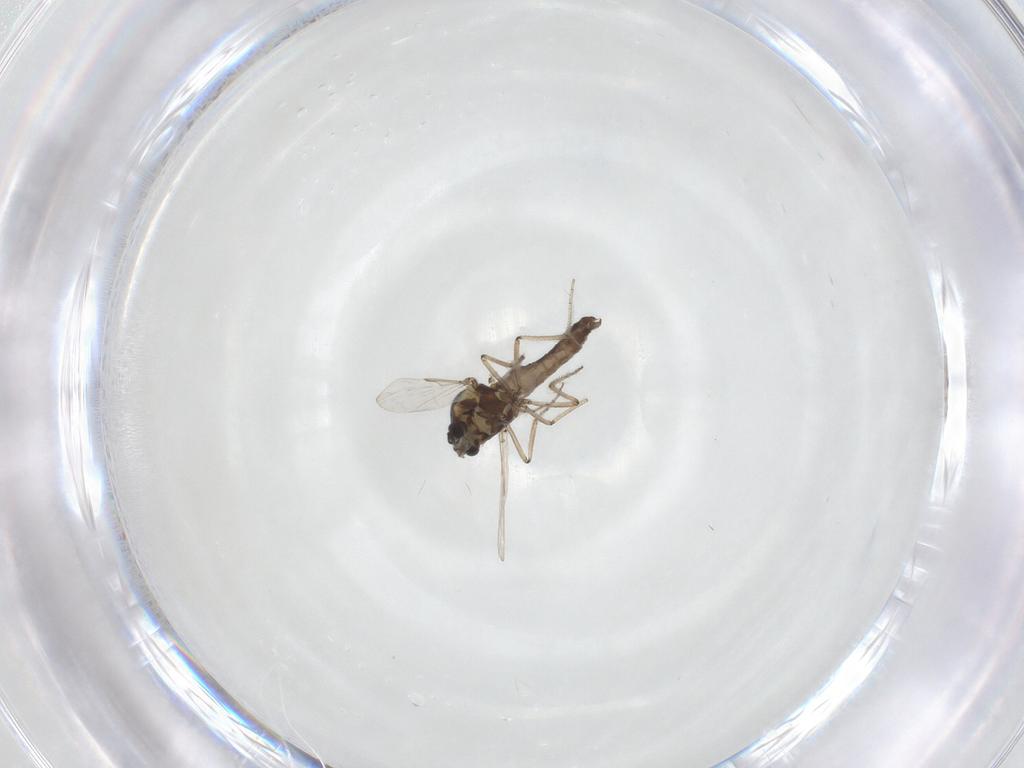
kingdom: Animalia
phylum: Arthropoda
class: Insecta
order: Diptera
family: Ceratopogonidae
